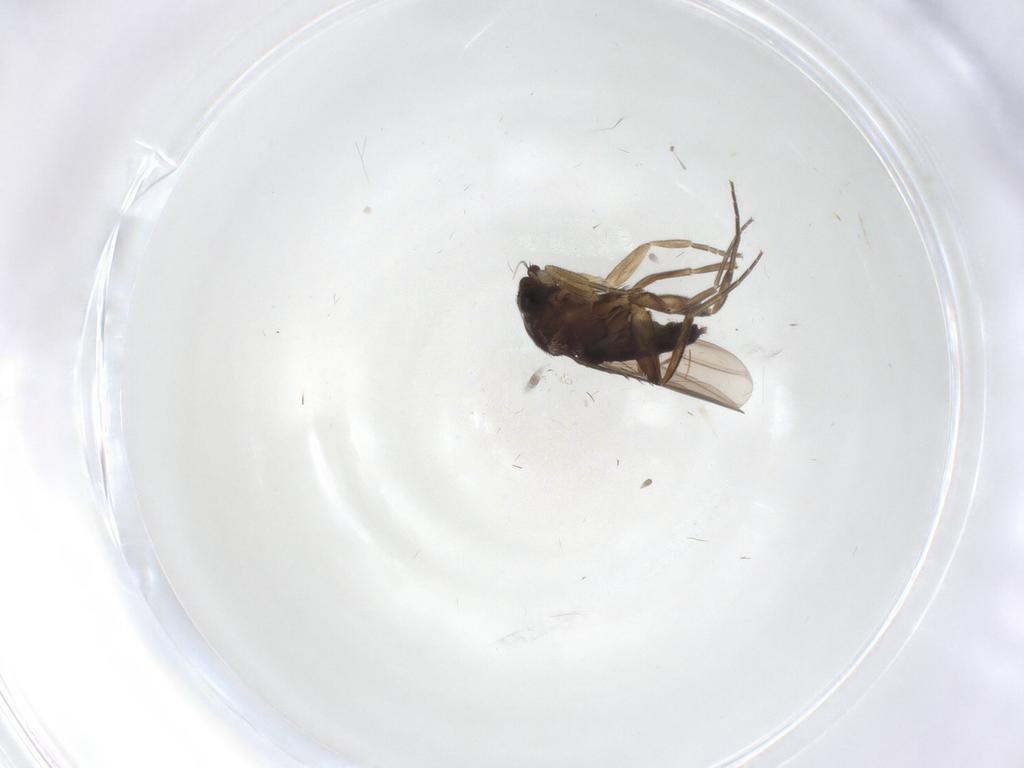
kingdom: Animalia
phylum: Arthropoda
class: Insecta
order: Diptera
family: Phoridae
